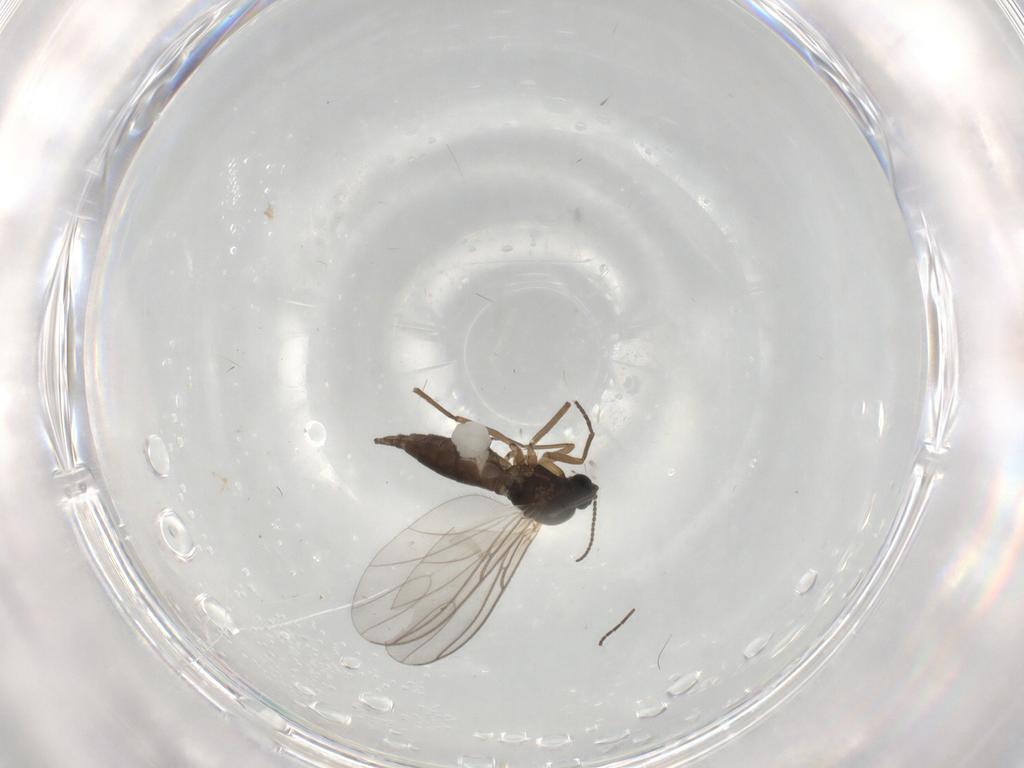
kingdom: Animalia
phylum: Arthropoda
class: Insecta
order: Diptera
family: Sciaridae
